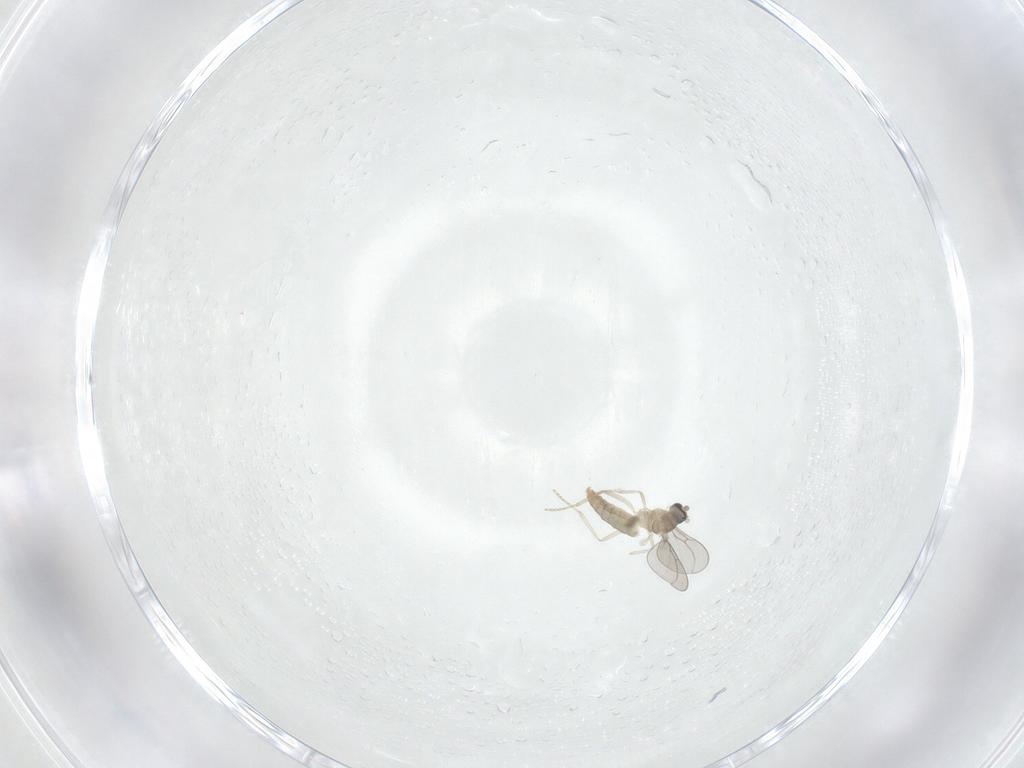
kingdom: Animalia
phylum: Arthropoda
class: Insecta
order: Diptera
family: Cecidomyiidae
